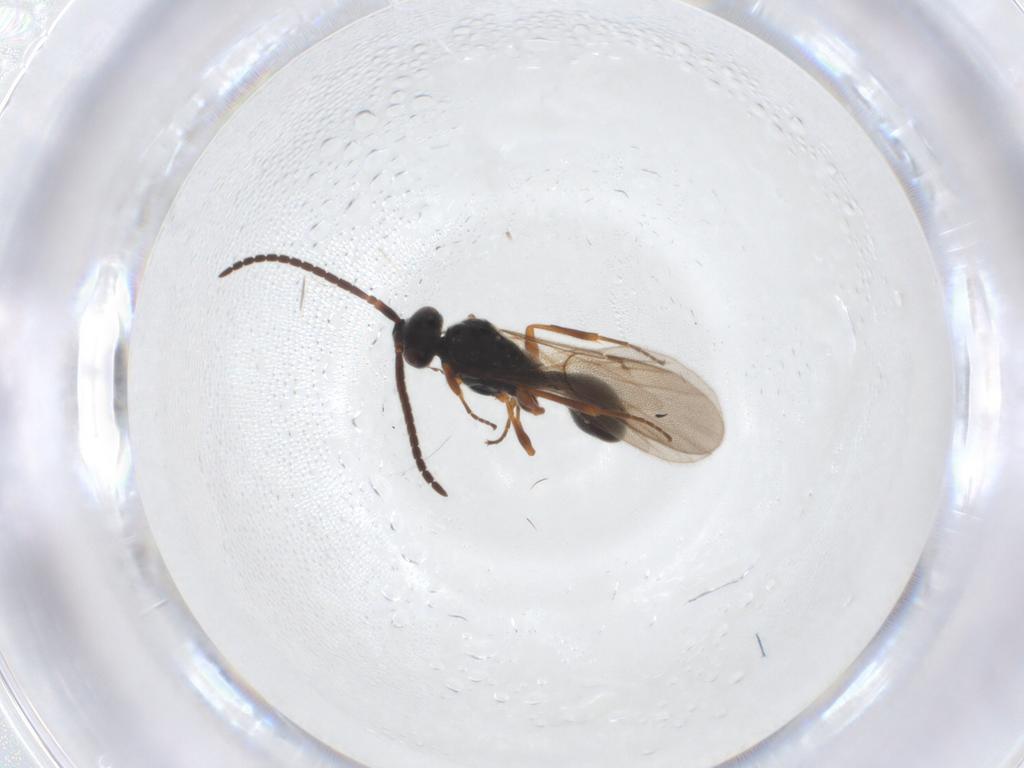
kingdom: Animalia
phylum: Arthropoda
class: Insecta
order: Hymenoptera
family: Diapriidae
